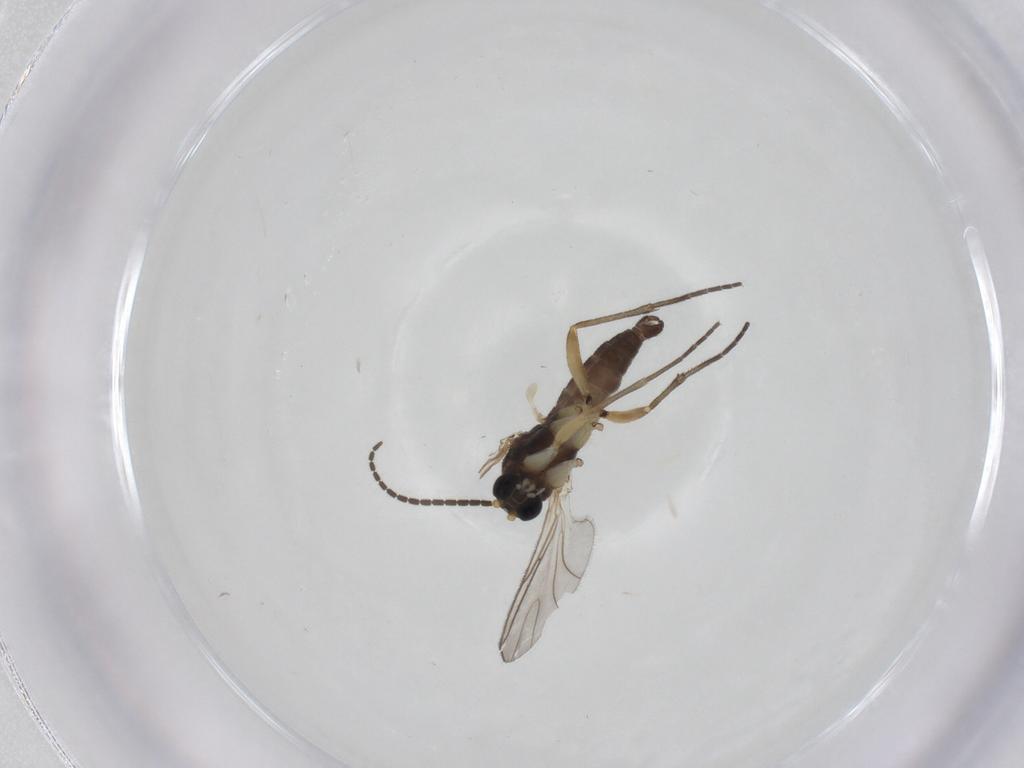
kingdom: Animalia
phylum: Arthropoda
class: Insecta
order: Diptera
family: Sciaridae
